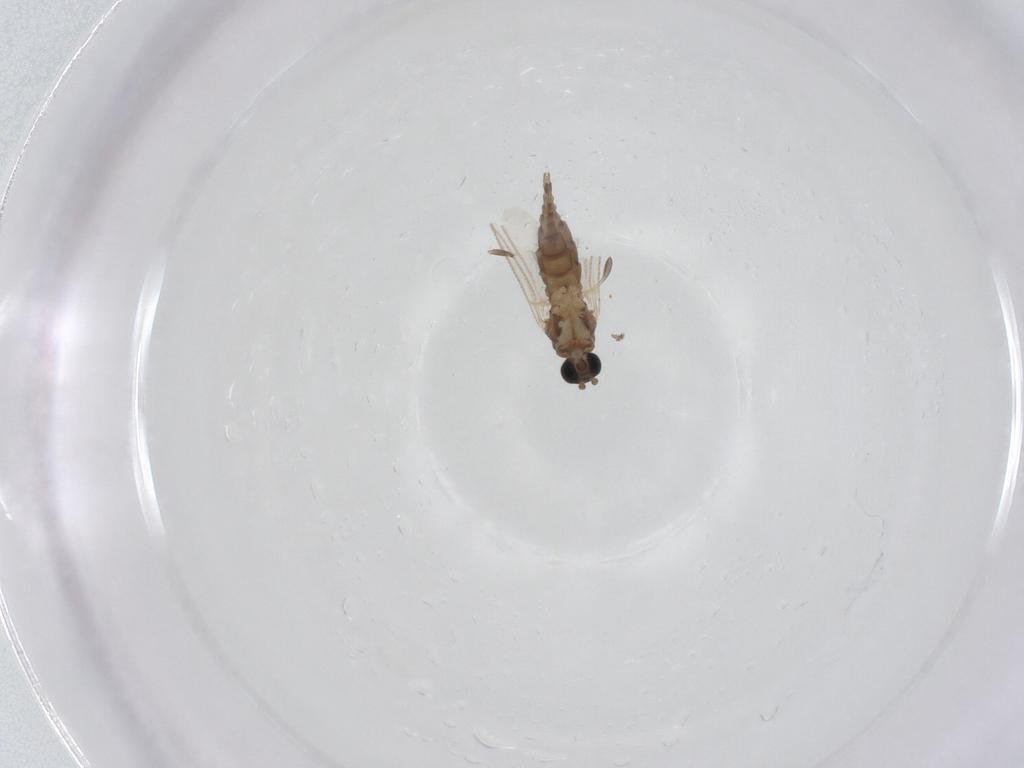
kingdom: Animalia
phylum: Arthropoda
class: Insecta
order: Diptera
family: Sciaridae
